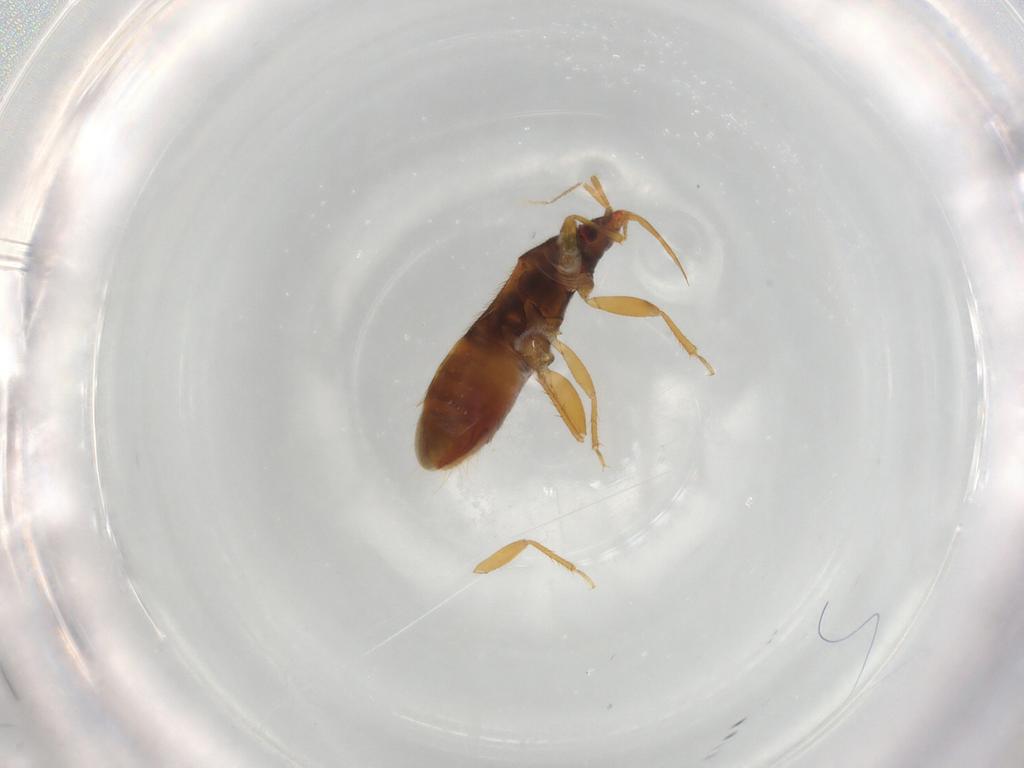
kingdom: Animalia
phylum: Arthropoda
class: Insecta
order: Hemiptera
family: Lasiochilidae
